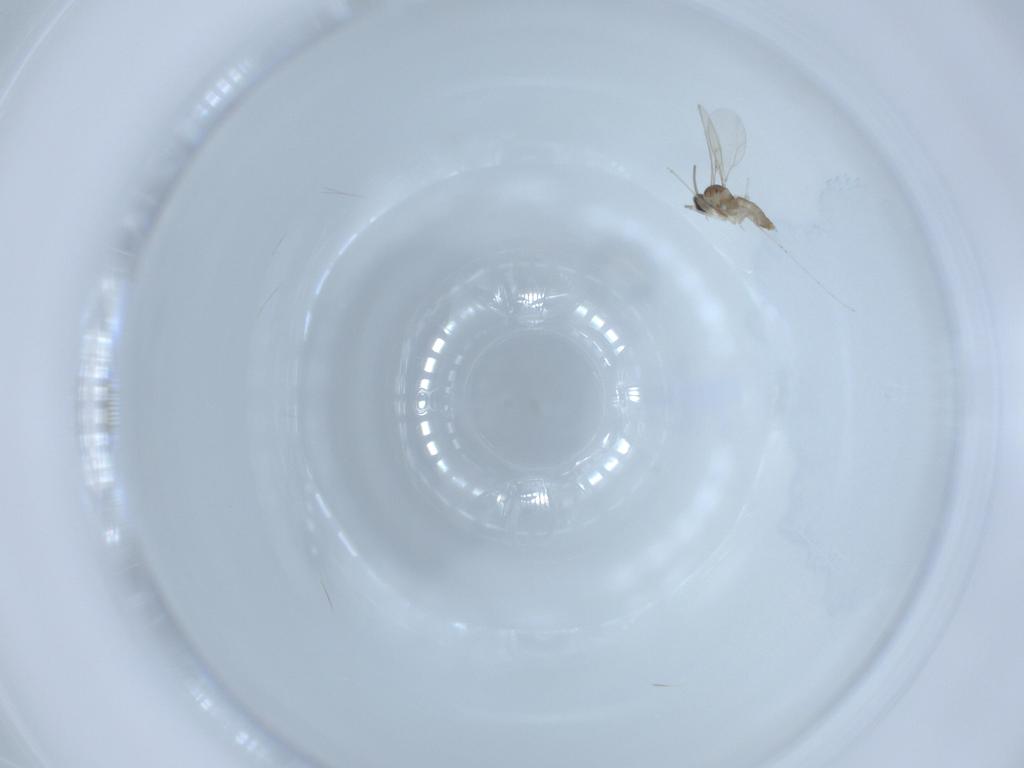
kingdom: Animalia
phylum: Arthropoda
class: Insecta
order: Diptera
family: Cecidomyiidae
